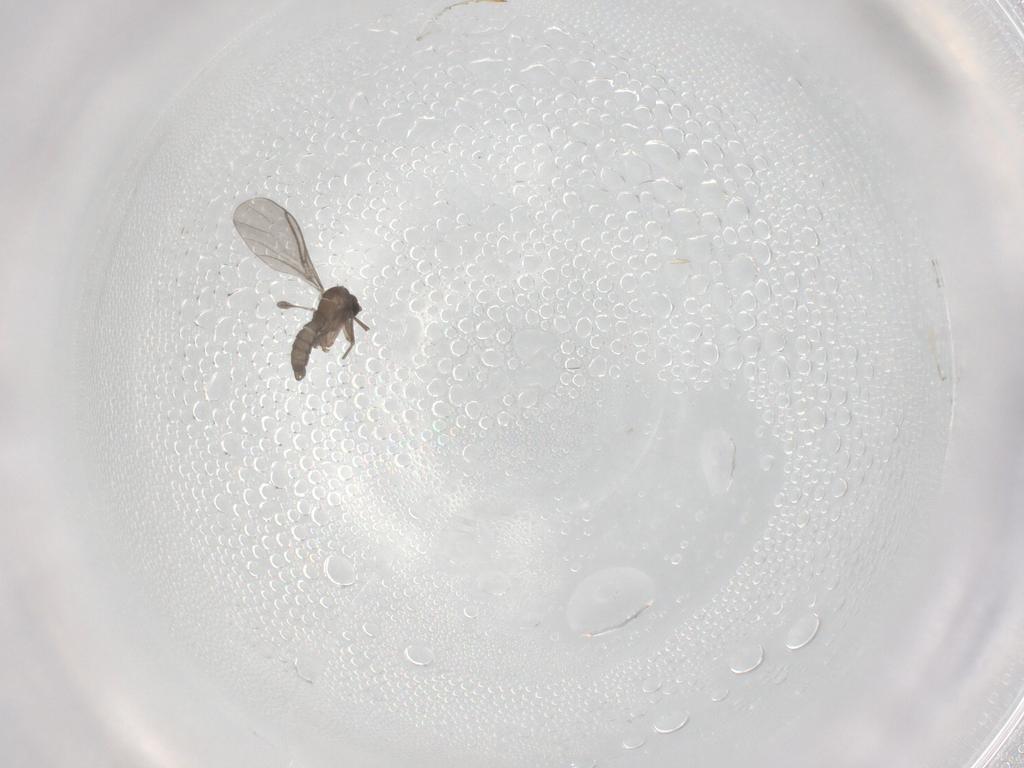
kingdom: Animalia
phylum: Arthropoda
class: Insecta
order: Diptera
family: Sciaridae
